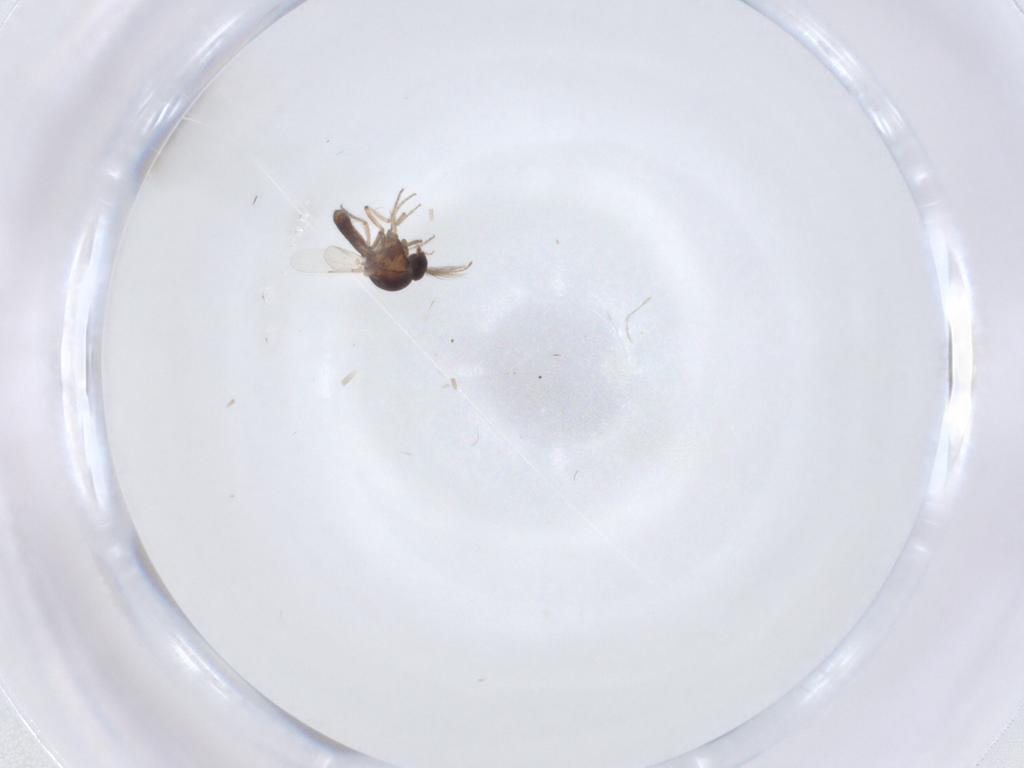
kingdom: Animalia
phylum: Arthropoda
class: Insecta
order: Diptera
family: Ceratopogonidae
